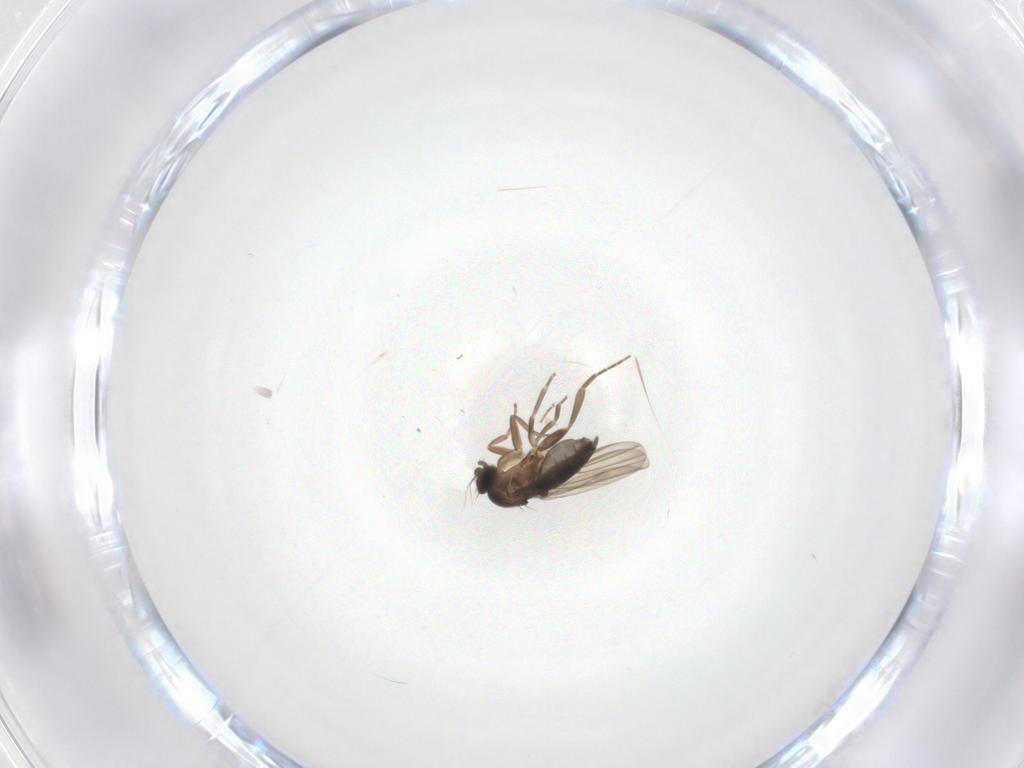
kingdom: Animalia
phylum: Arthropoda
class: Insecta
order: Diptera
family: Phoridae
